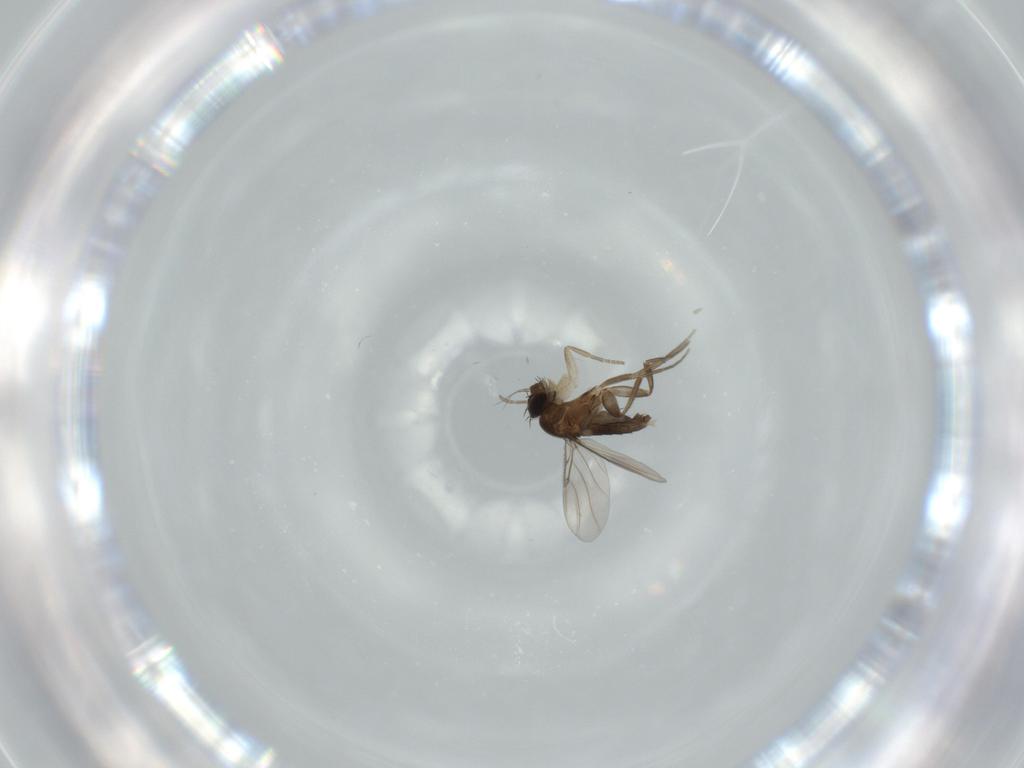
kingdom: Animalia
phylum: Arthropoda
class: Insecta
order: Diptera
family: Phoridae
